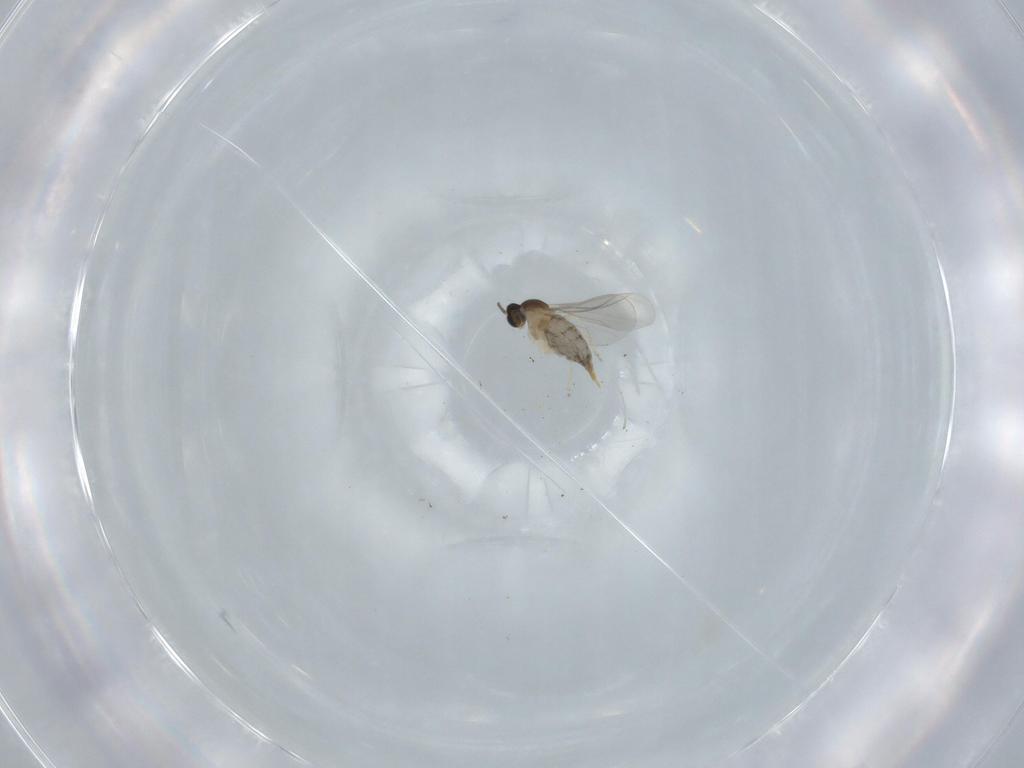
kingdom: Animalia
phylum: Arthropoda
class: Insecta
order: Diptera
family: Cecidomyiidae
